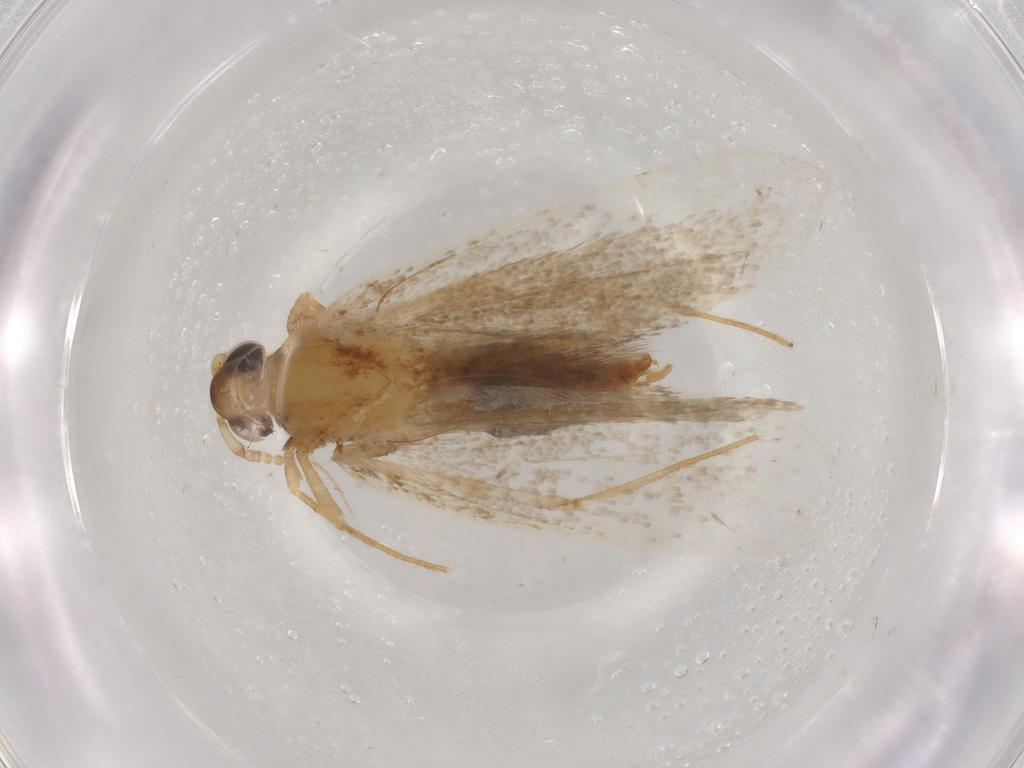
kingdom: Animalia
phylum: Arthropoda
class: Insecta
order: Lepidoptera
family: Lecithoceridae
